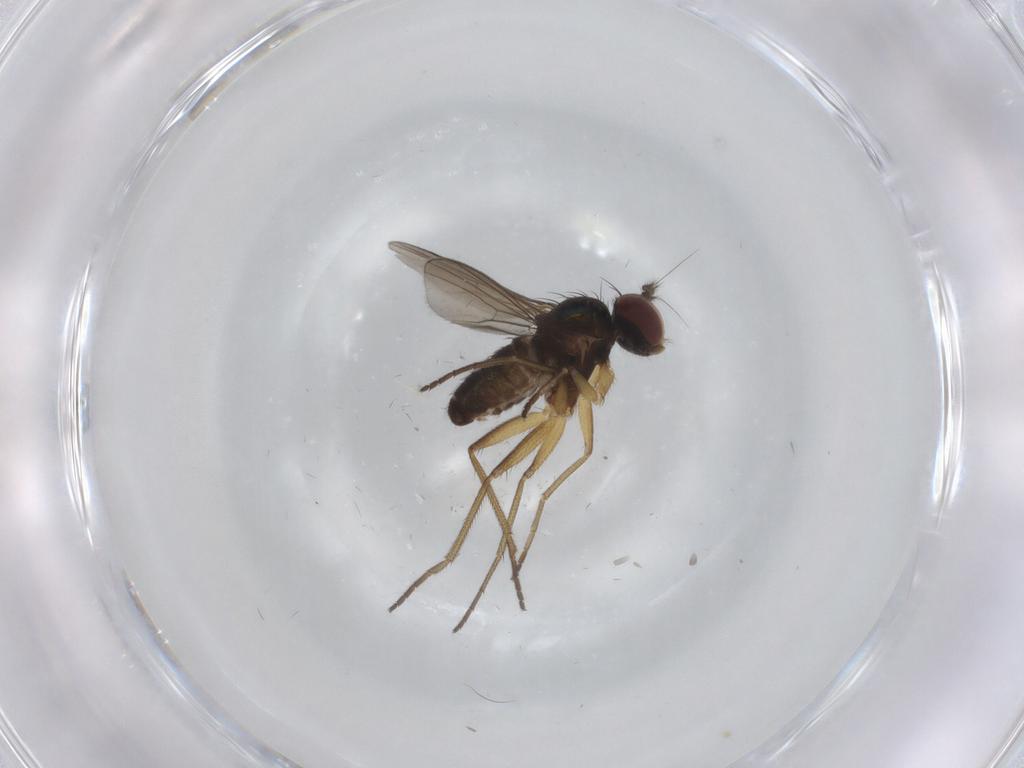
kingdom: Animalia
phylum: Arthropoda
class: Insecta
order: Diptera
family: Dolichopodidae
